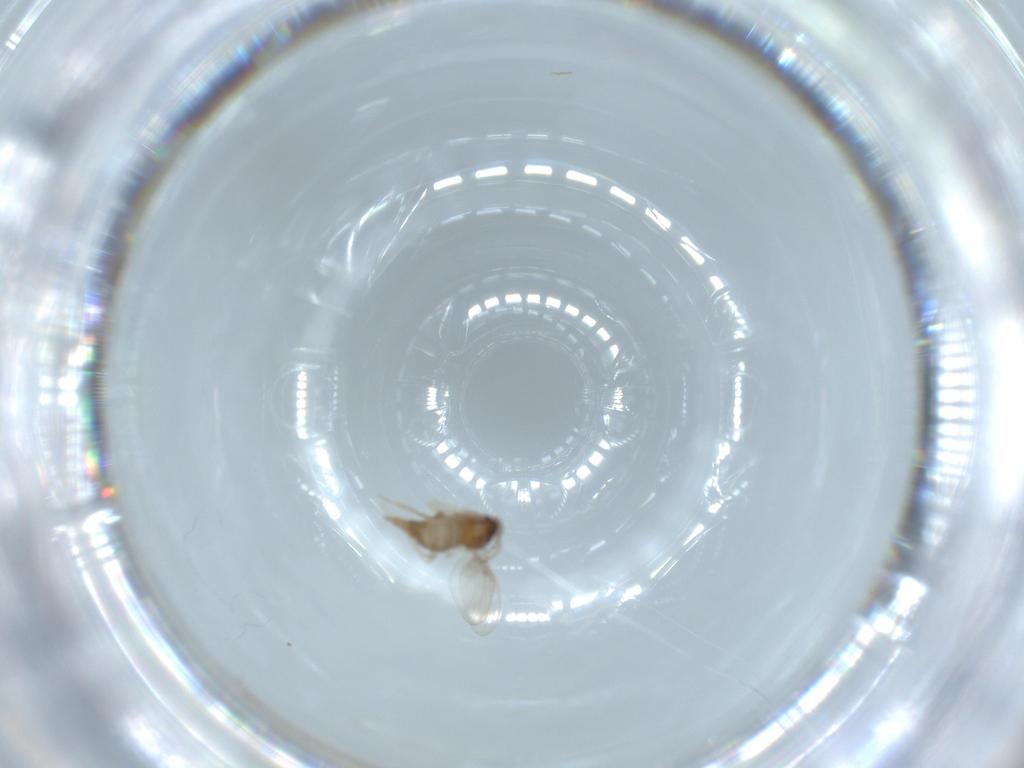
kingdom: Animalia
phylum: Arthropoda
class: Insecta
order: Diptera
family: Cecidomyiidae
